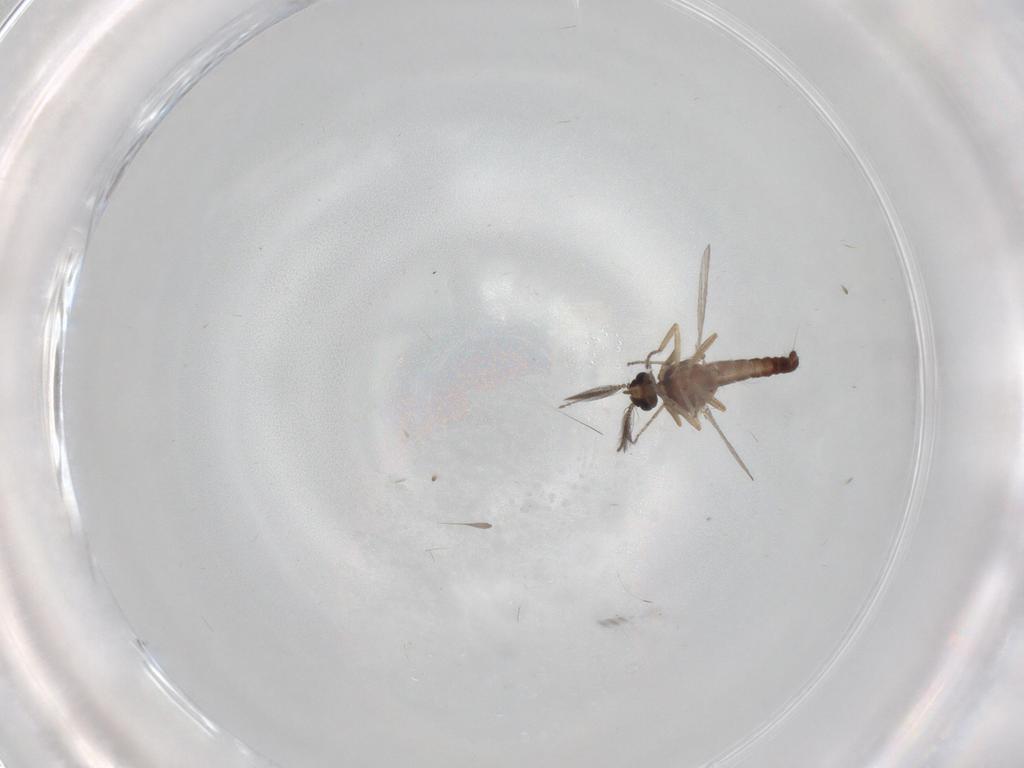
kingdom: Animalia
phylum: Arthropoda
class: Insecta
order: Diptera
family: Ceratopogonidae
